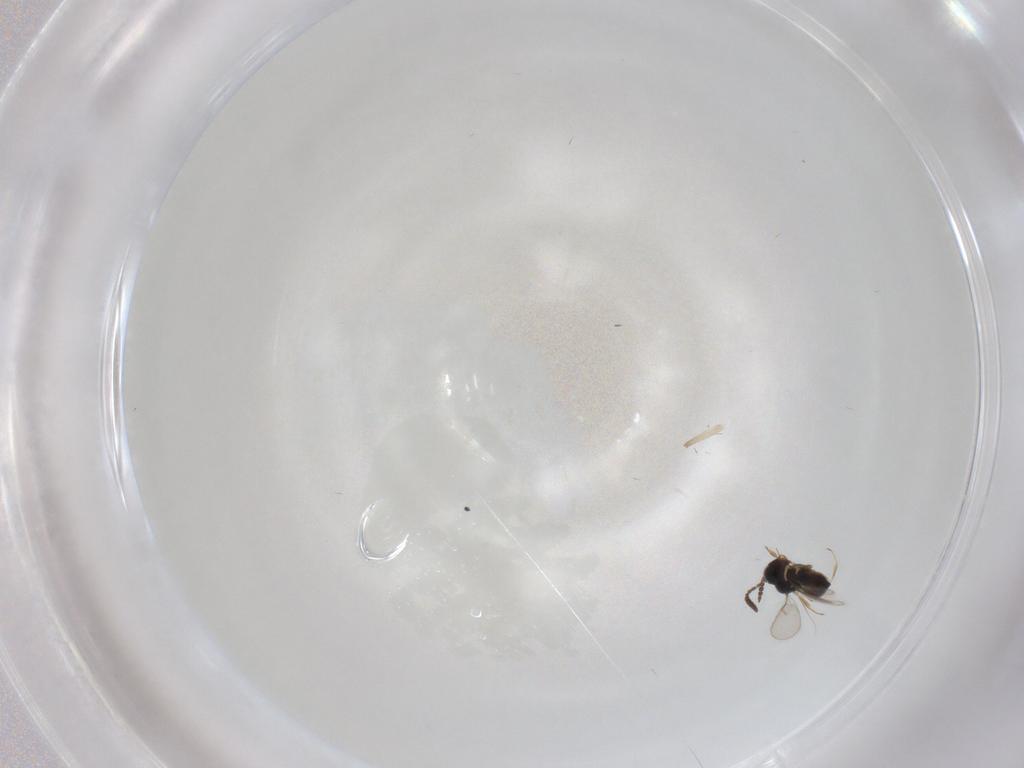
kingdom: Animalia
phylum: Arthropoda
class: Insecta
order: Hymenoptera
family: Scelionidae
